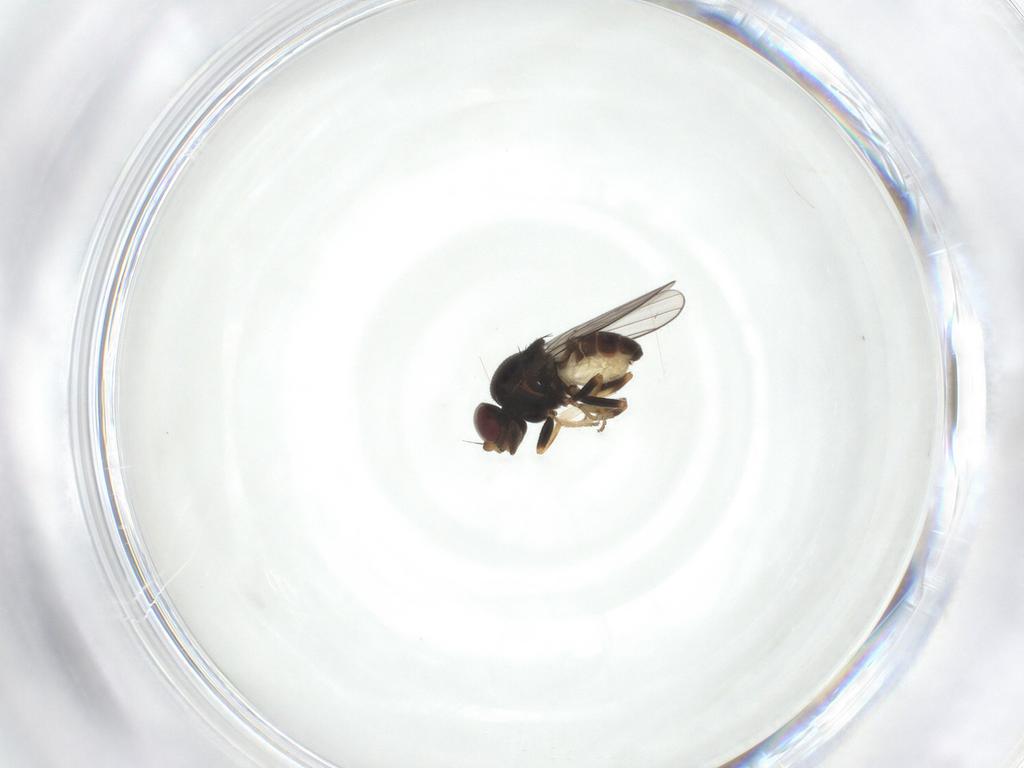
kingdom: Animalia
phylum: Arthropoda
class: Insecta
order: Diptera
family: Chloropidae
